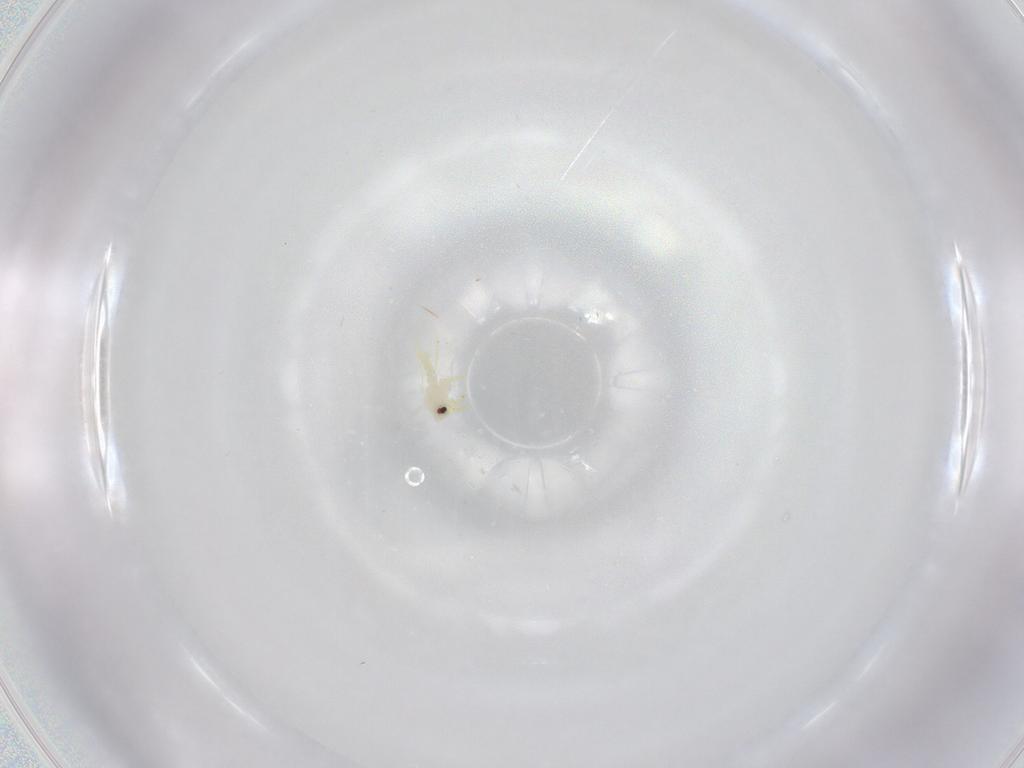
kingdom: Animalia
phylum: Arthropoda
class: Insecta
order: Hemiptera
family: Aleyrodidae
